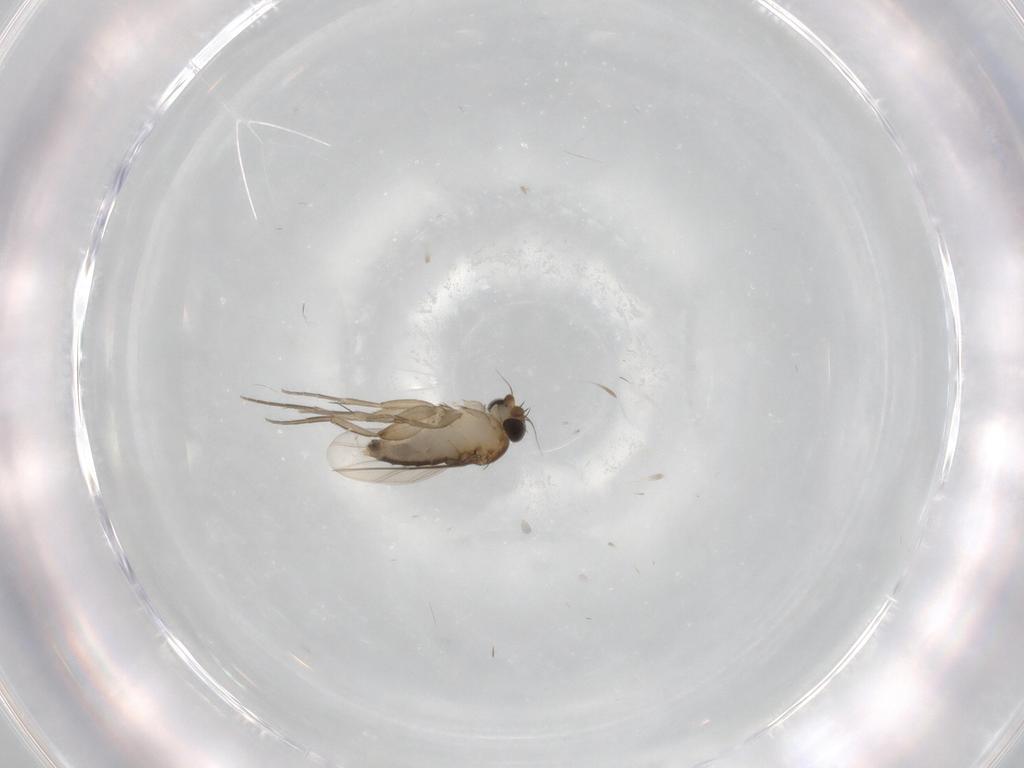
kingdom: Animalia
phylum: Arthropoda
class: Insecta
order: Diptera
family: Phoridae
